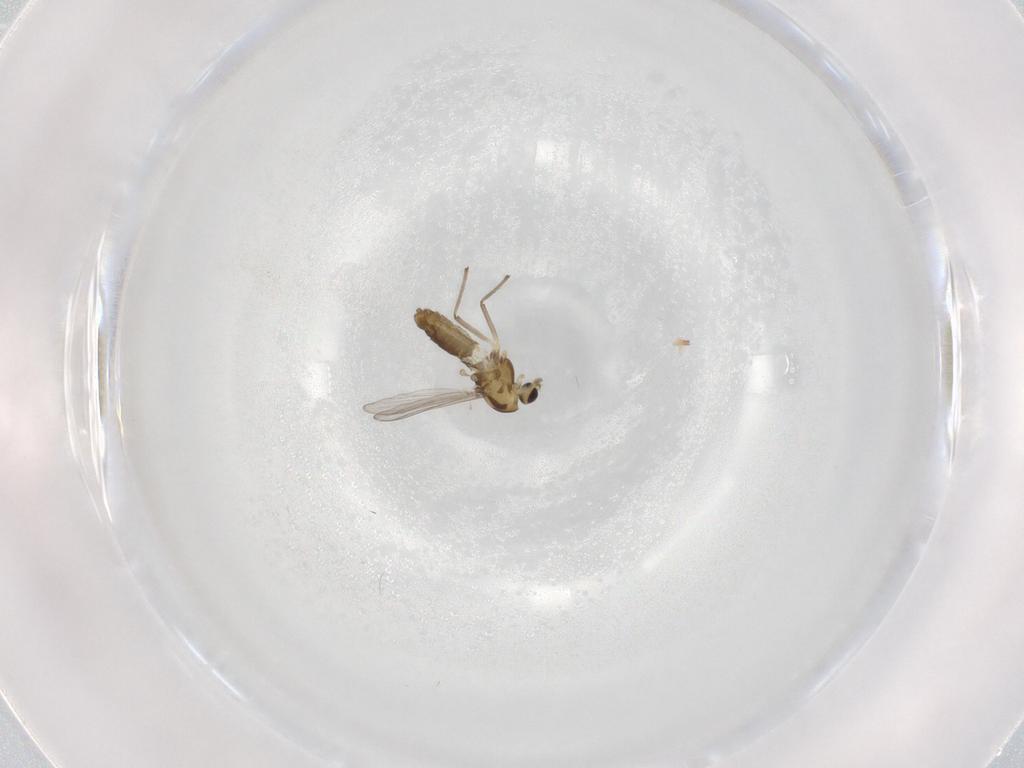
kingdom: Animalia
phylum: Arthropoda
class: Insecta
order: Diptera
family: Chironomidae
